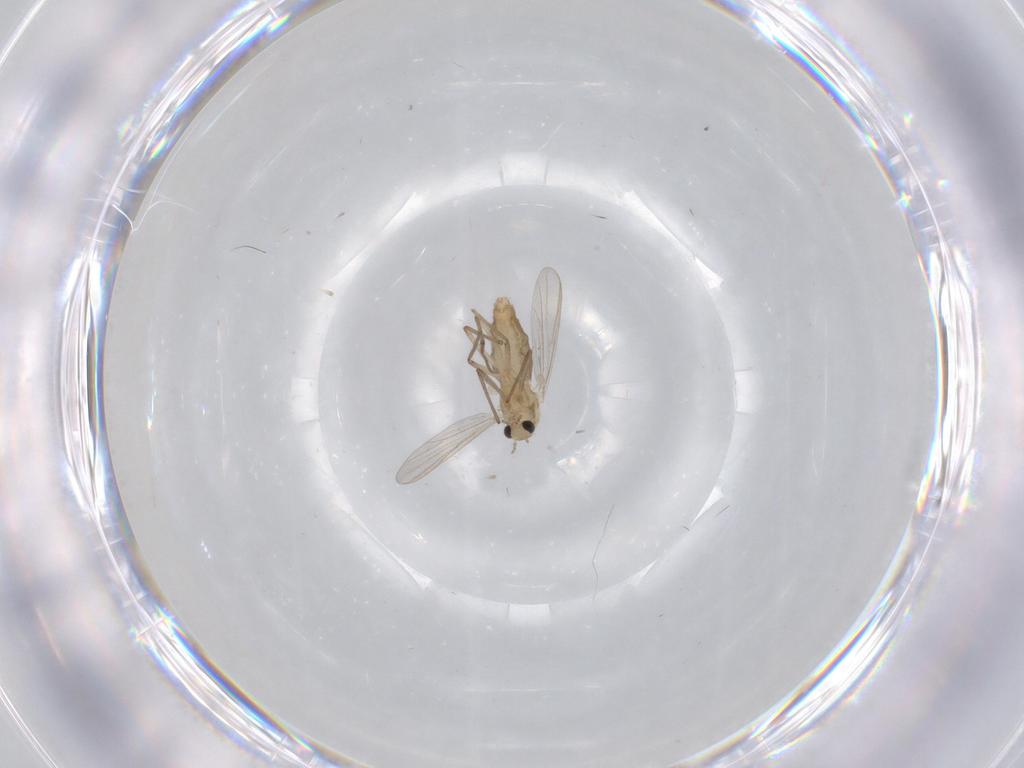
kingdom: Animalia
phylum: Arthropoda
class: Insecta
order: Diptera
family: Chironomidae
